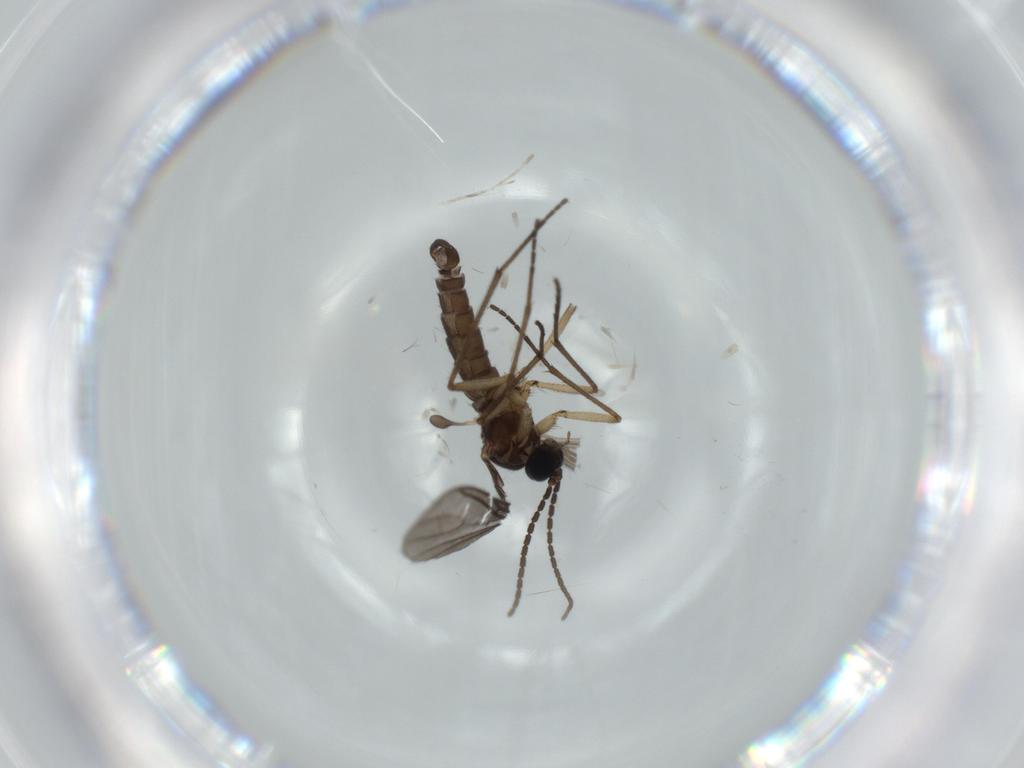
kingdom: Animalia
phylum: Arthropoda
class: Insecta
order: Diptera
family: Sciaridae
